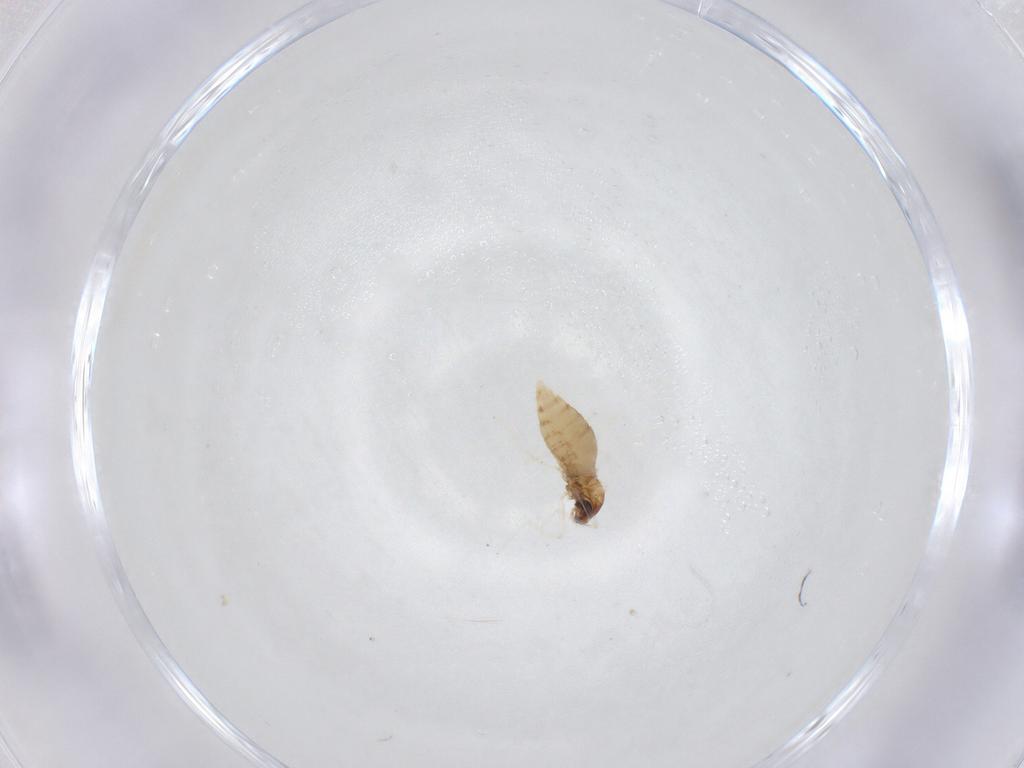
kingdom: Animalia
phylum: Arthropoda
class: Insecta
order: Diptera
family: Cecidomyiidae
